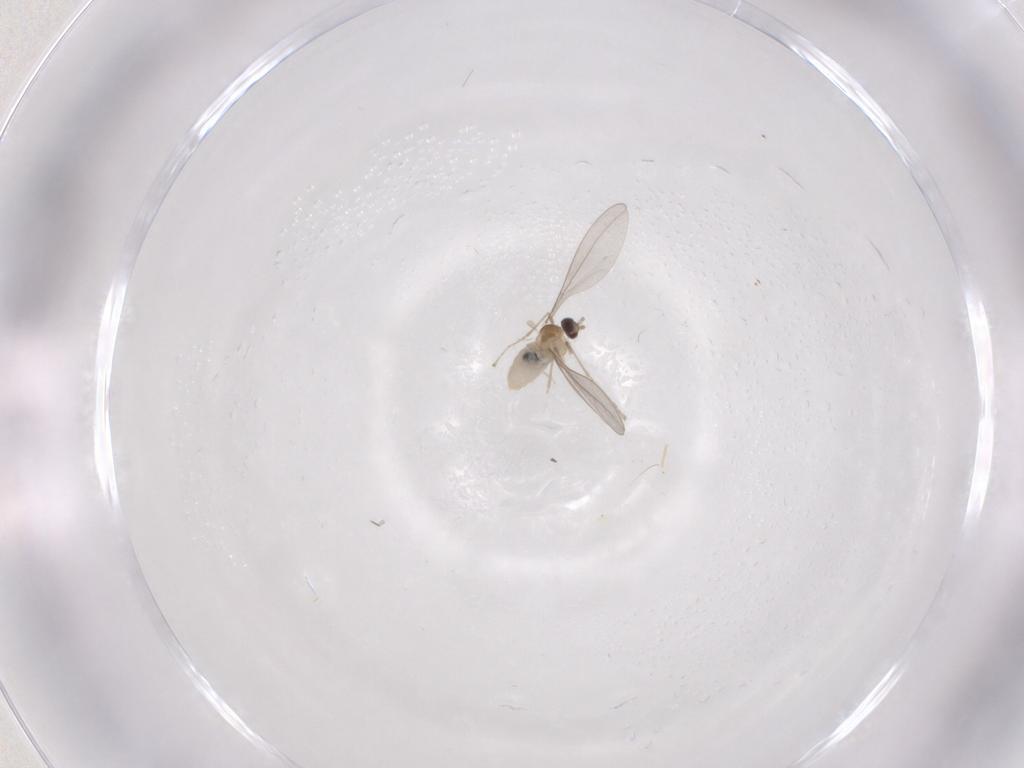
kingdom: Animalia
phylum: Arthropoda
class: Insecta
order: Diptera
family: Cecidomyiidae
